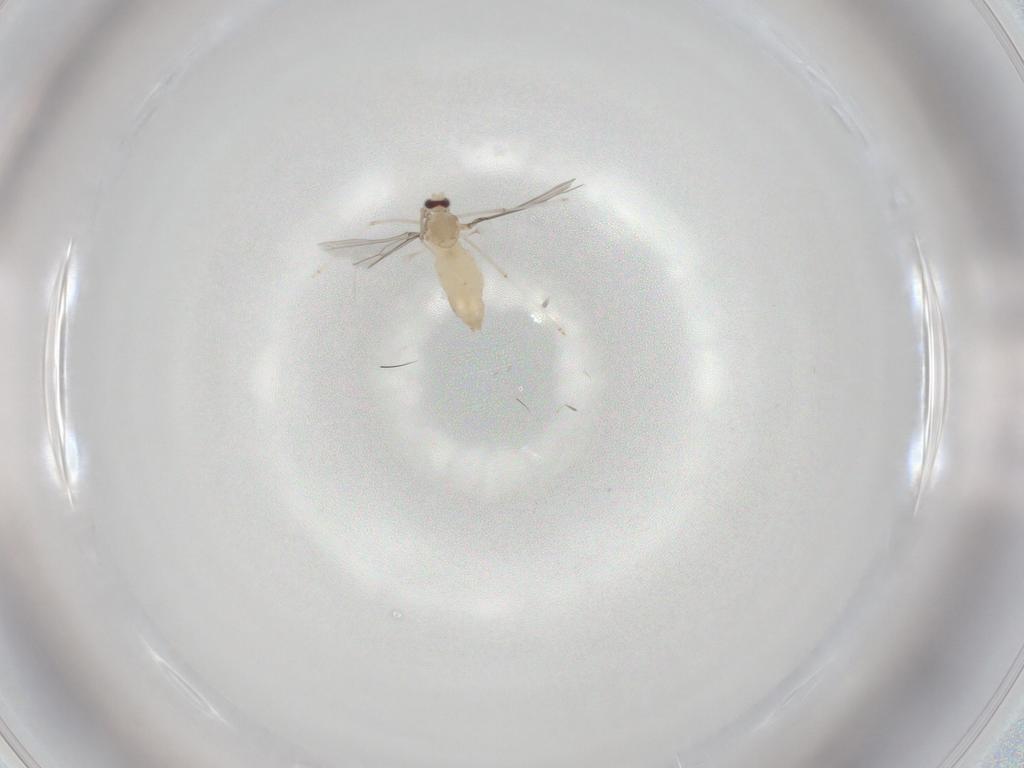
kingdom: Animalia
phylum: Arthropoda
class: Insecta
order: Diptera
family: Cecidomyiidae
